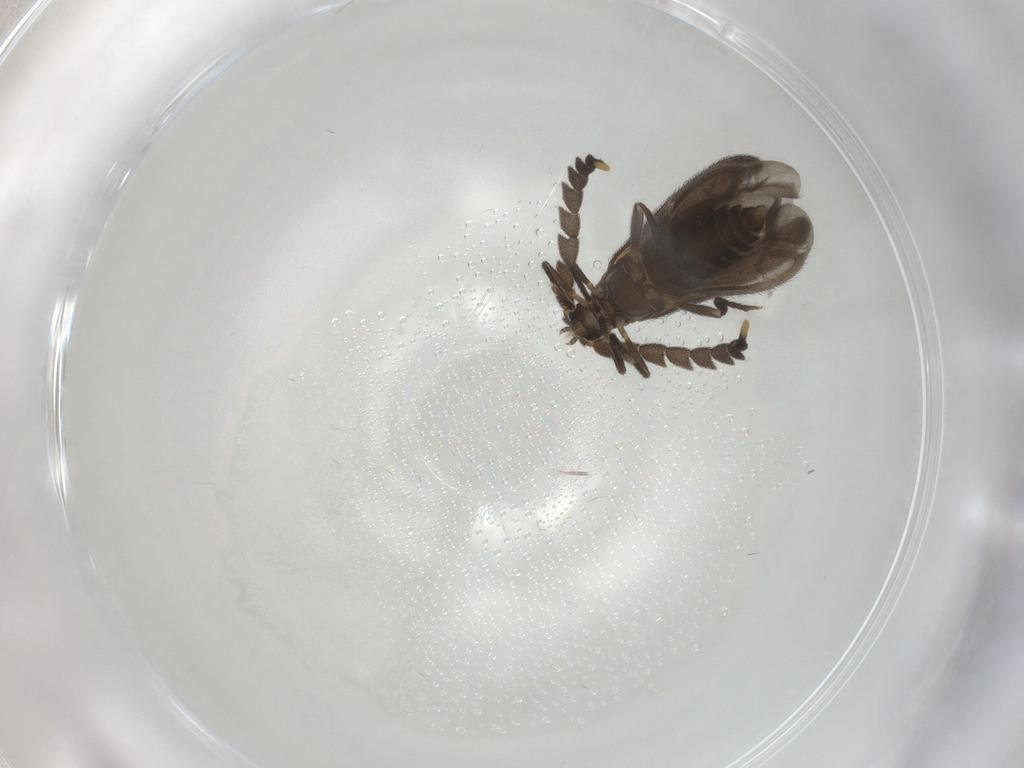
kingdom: Animalia
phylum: Arthropoda
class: Insecta
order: Coleoptera
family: Lycidae
